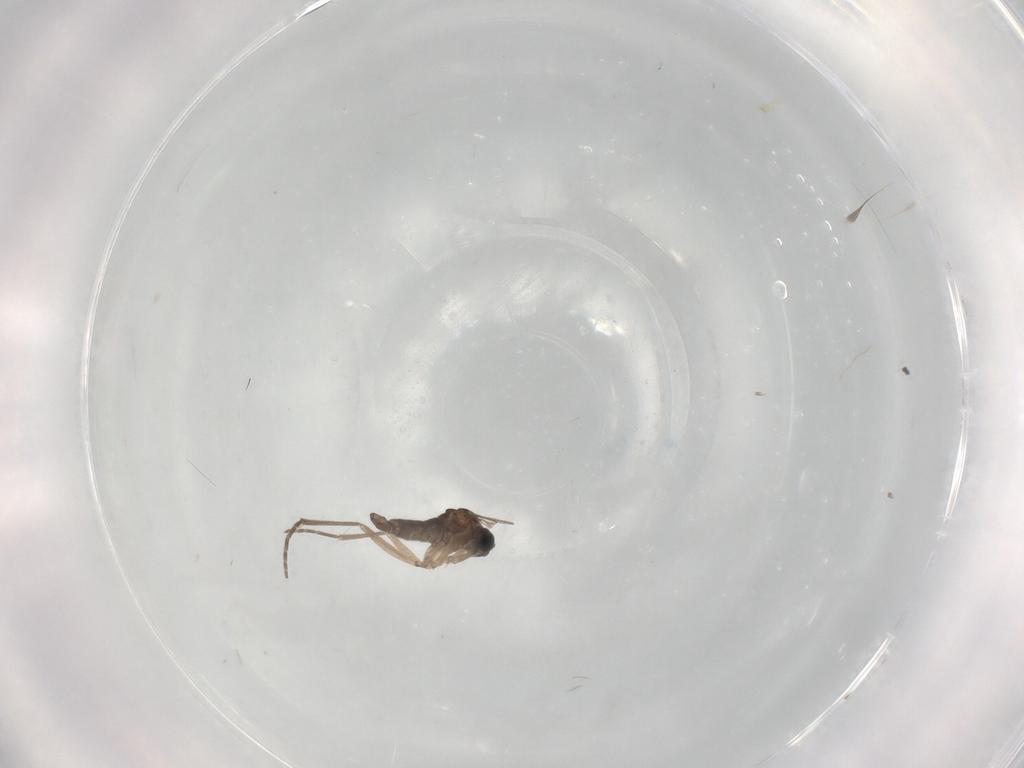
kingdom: Animalia
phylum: Arthropoda
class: Insecta
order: Diptera
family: Sciaridae
